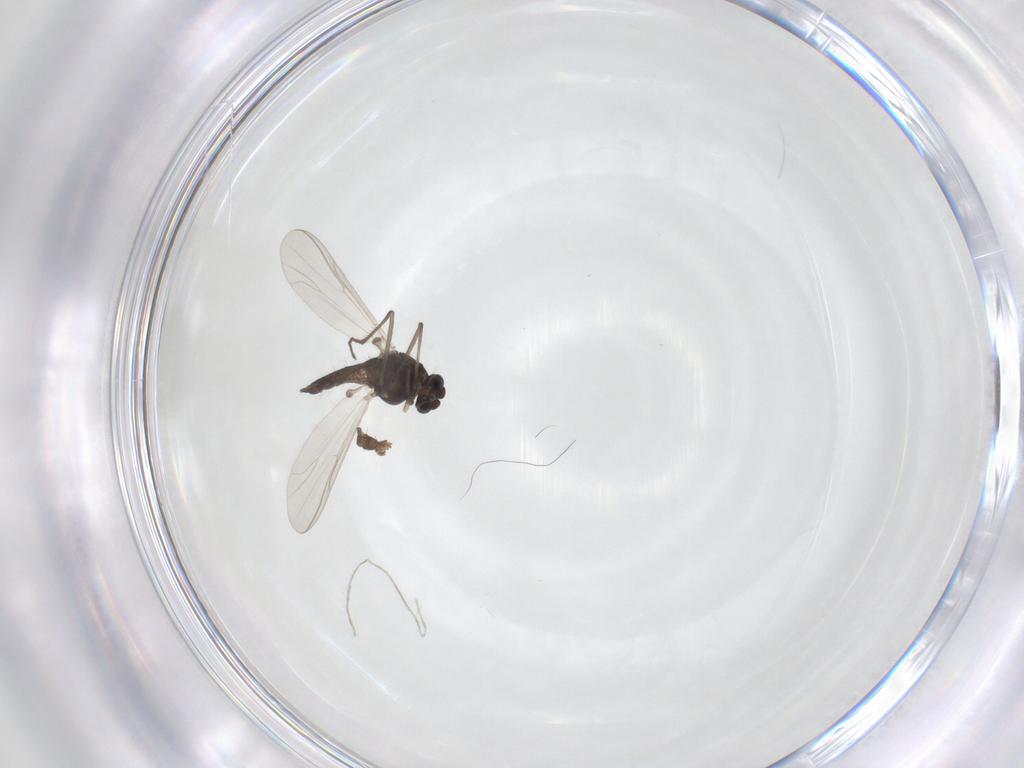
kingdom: Animalia
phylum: Arthropoda
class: Insecta
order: Diptera
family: Chironomidae
